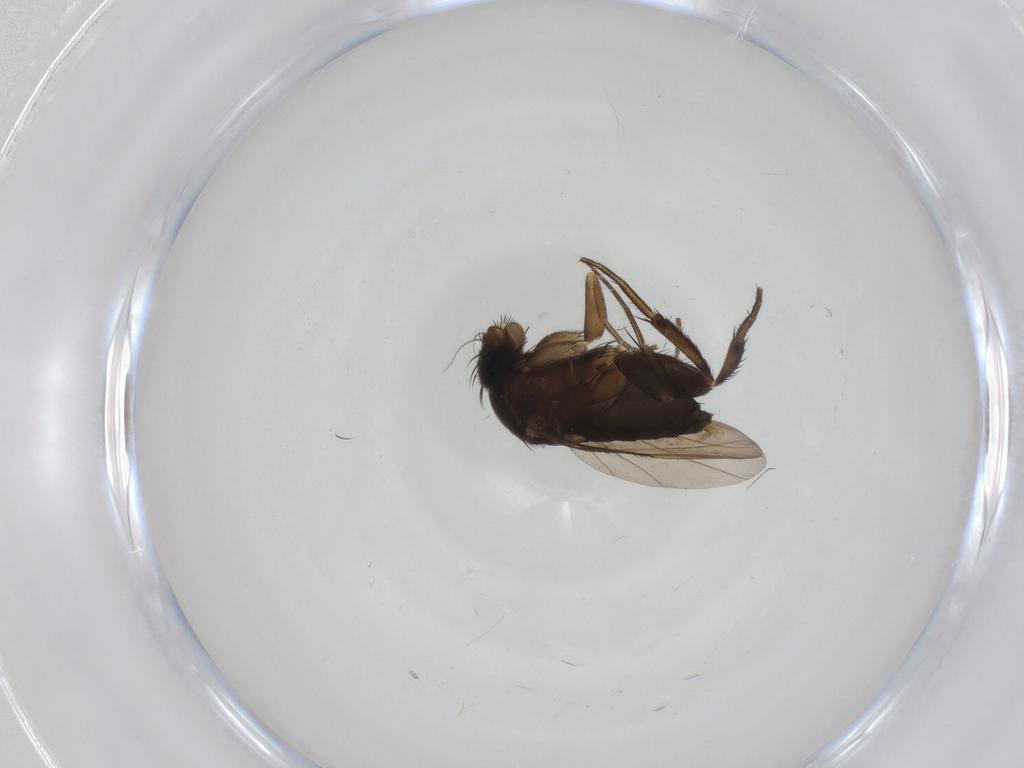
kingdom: Animalia
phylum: Arthropoda
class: Insecta
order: Diptera
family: Phoridae
